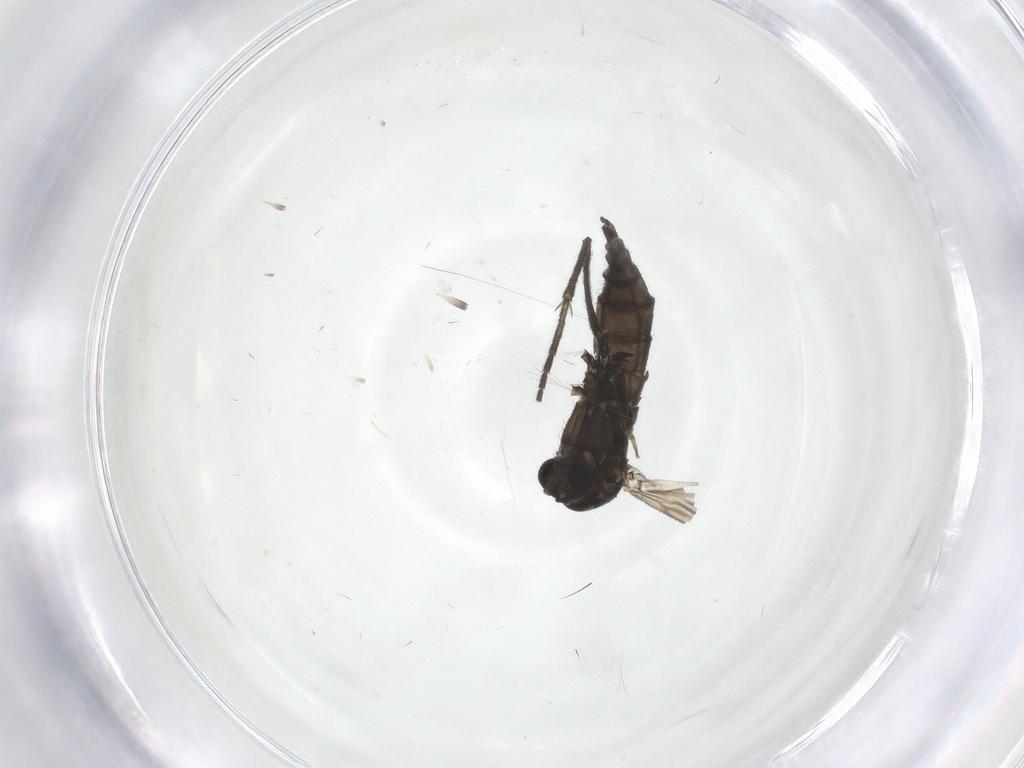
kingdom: Animalia
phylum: Arthropoda
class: Insecta
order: Diptera
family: Sciaridae
